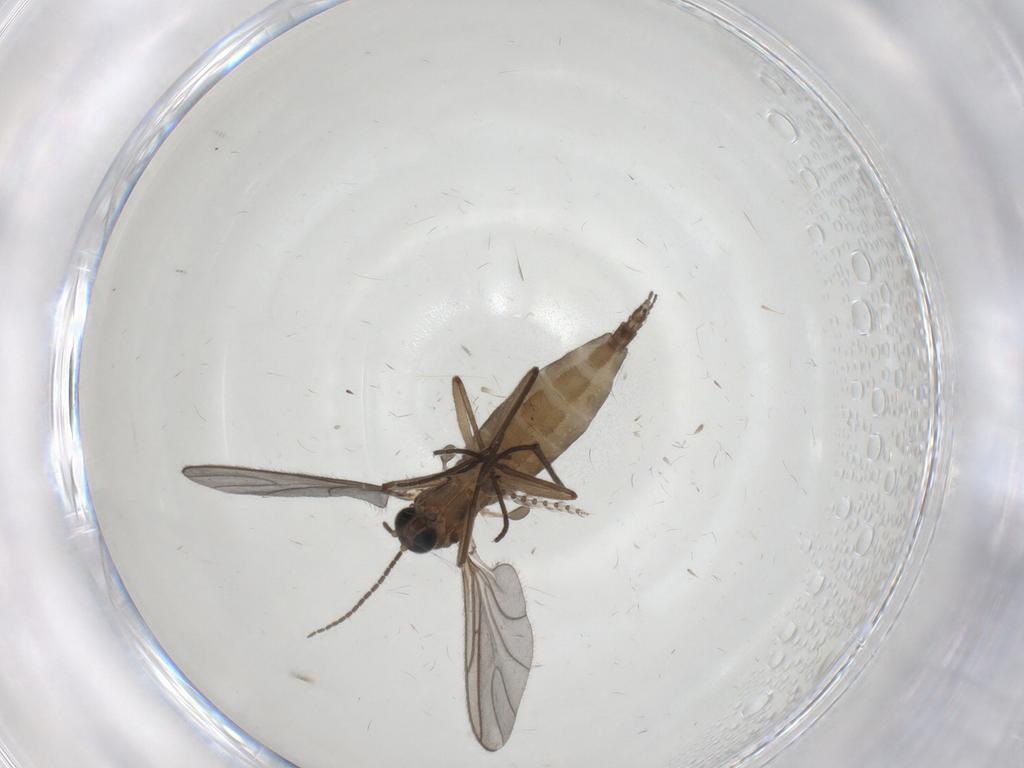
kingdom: Animalia
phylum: Arthropoda
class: Insecta
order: Diptera
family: Psychodidae
